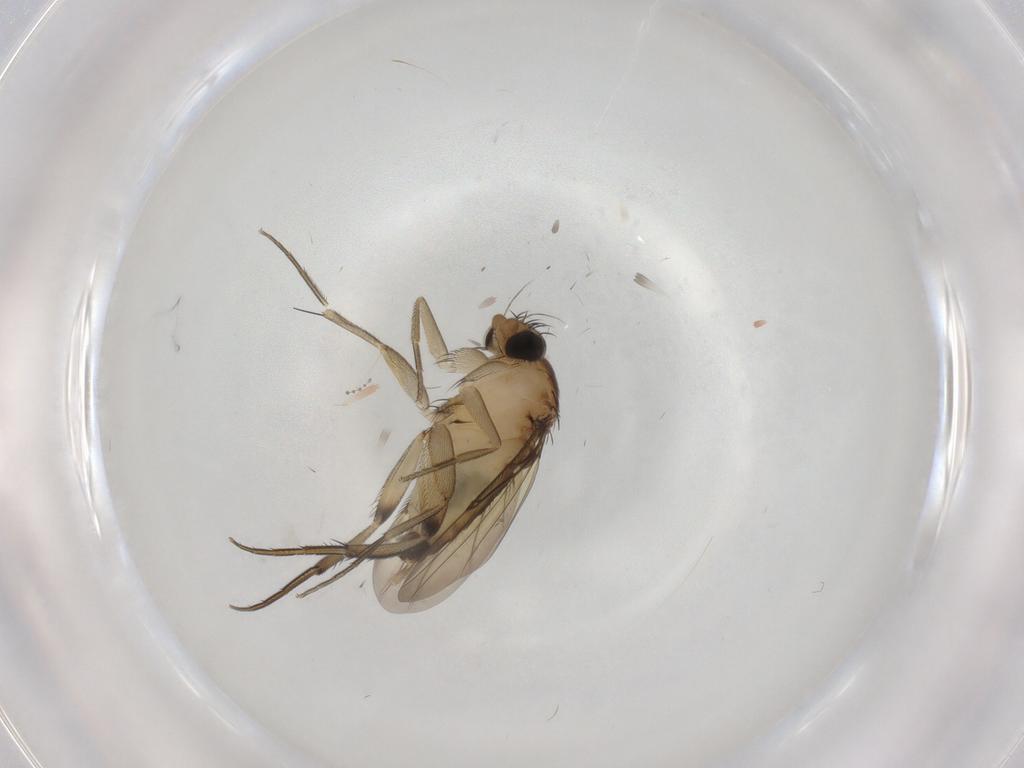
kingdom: Animalia
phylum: Arthropoda
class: Insecta
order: Diptera
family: Phoridae
